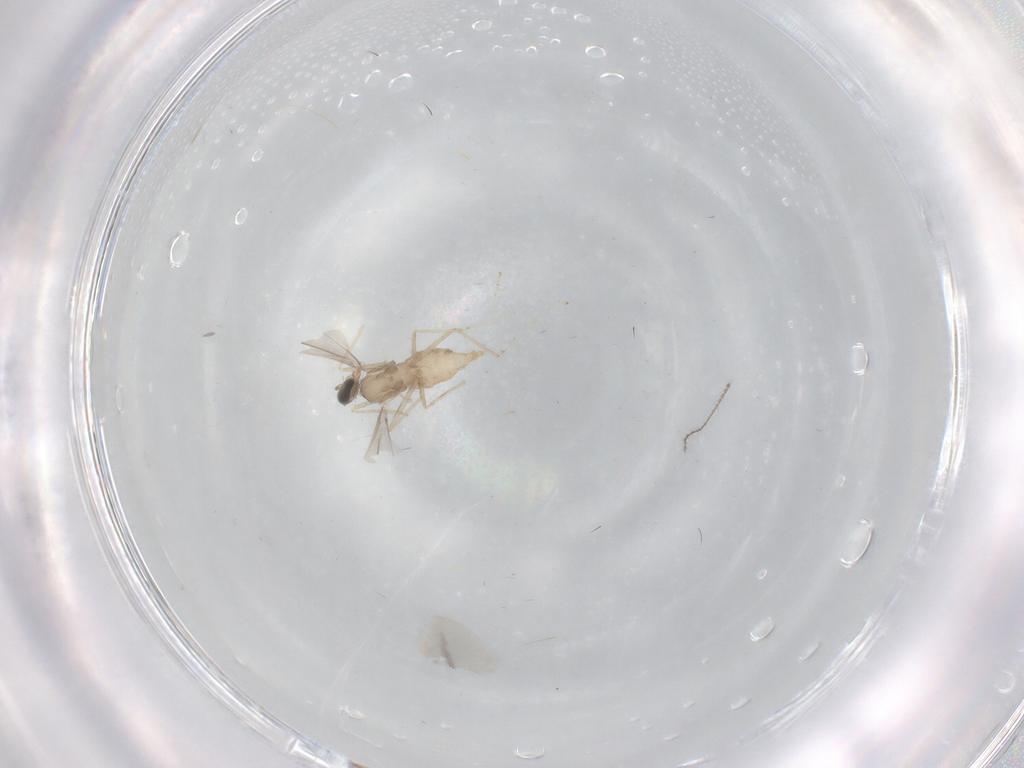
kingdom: Animalia
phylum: Arthropoda
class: Insecta
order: Diptera
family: Cecidomyiidae
